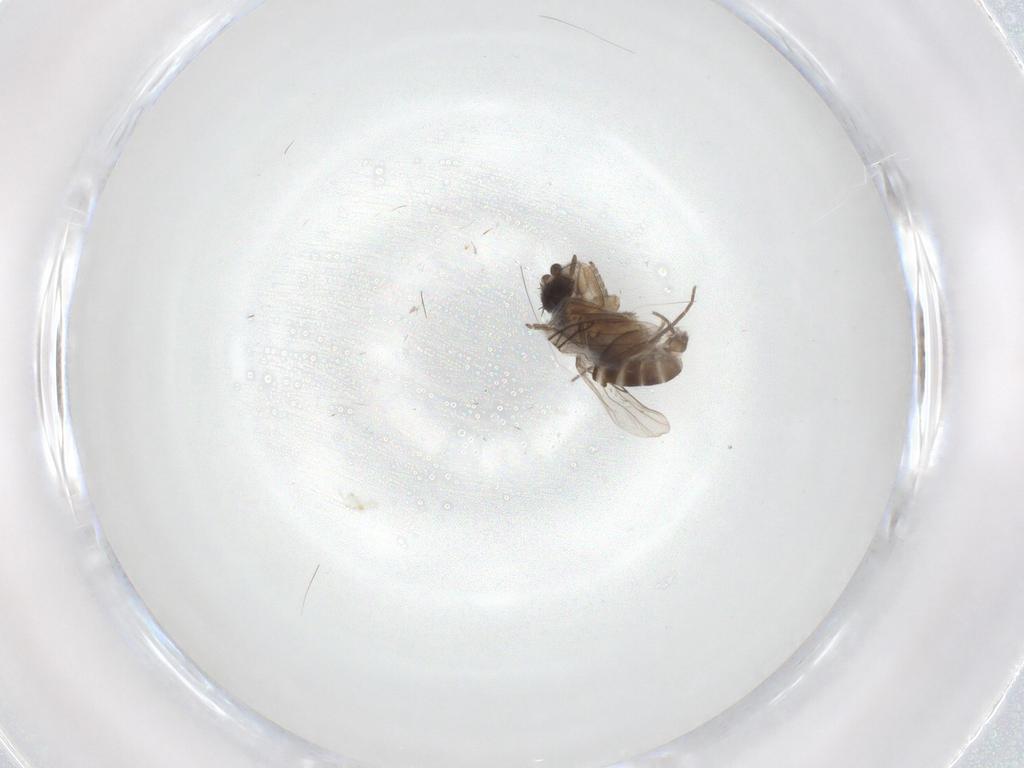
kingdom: Animalia
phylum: Arthropoda
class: Insecta
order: Diptera
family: Phoridae
